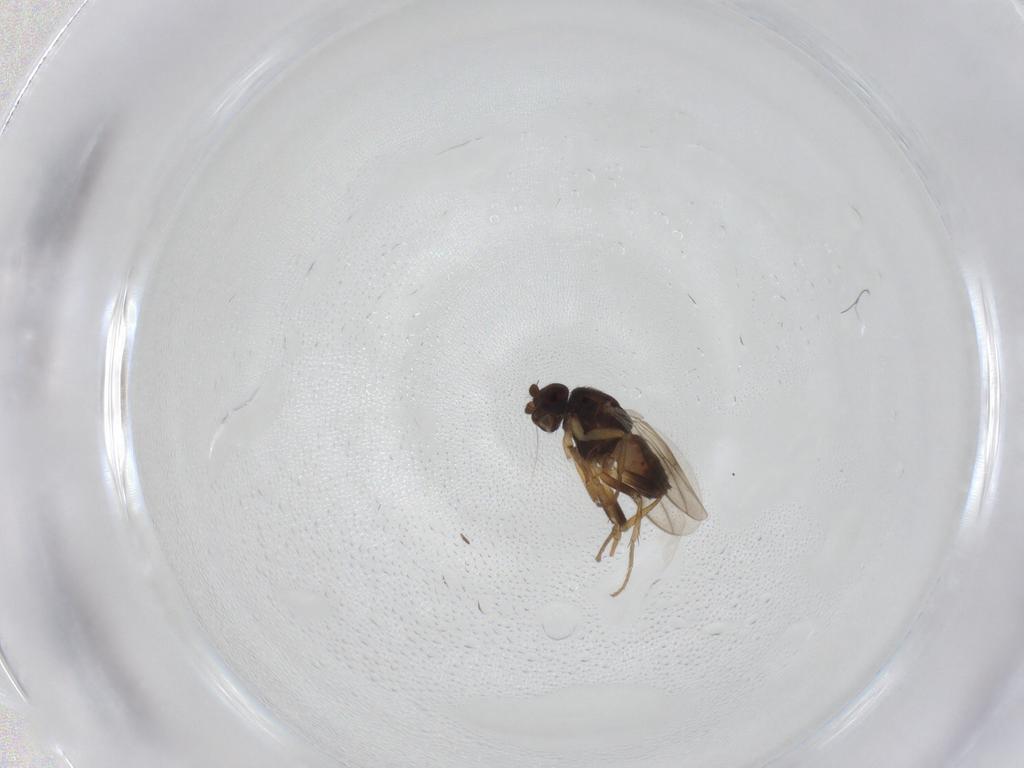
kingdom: Animalia
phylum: Arthropoda
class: Insecta
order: Diptera
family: Sphaeroceridae
